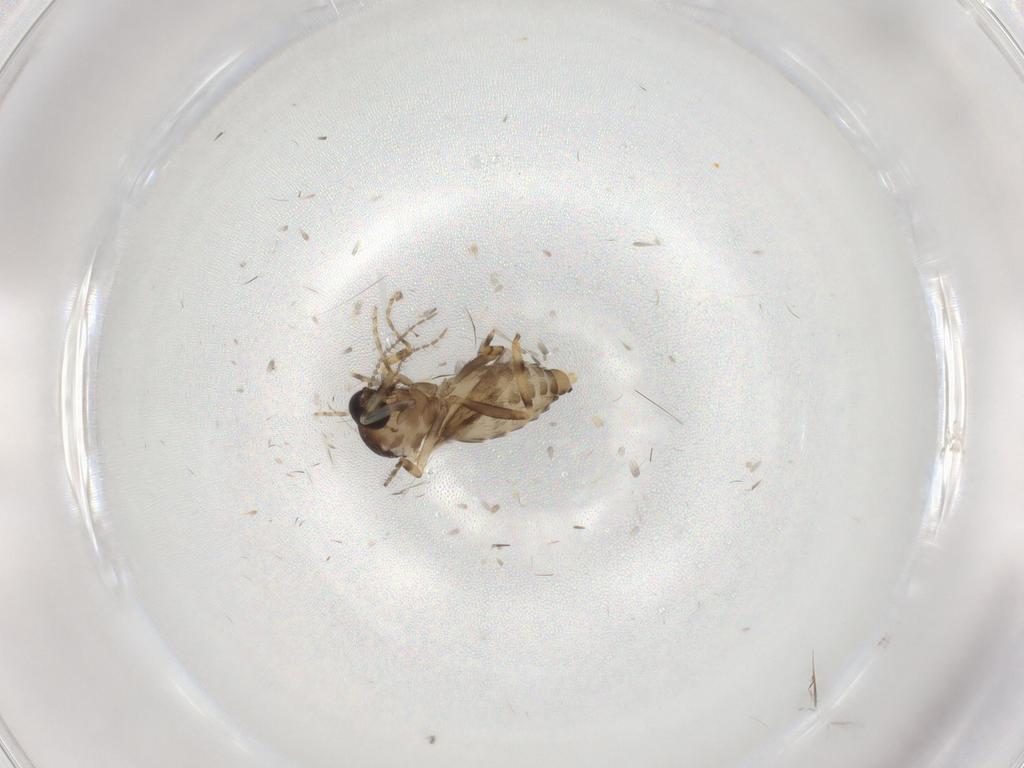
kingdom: Animalia
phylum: Arthropoda
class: Insecta
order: Diptera
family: Ceratopogonidae
